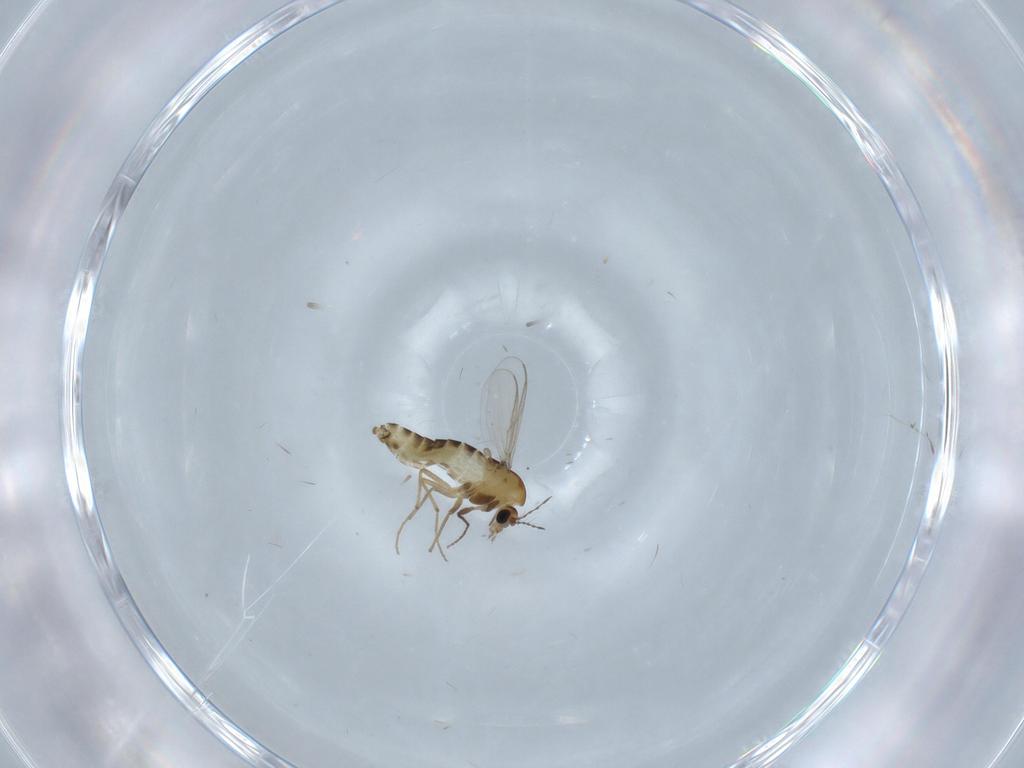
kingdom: Animalia
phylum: Arthropoda
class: Insecta
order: Diptera
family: Chironomidae
